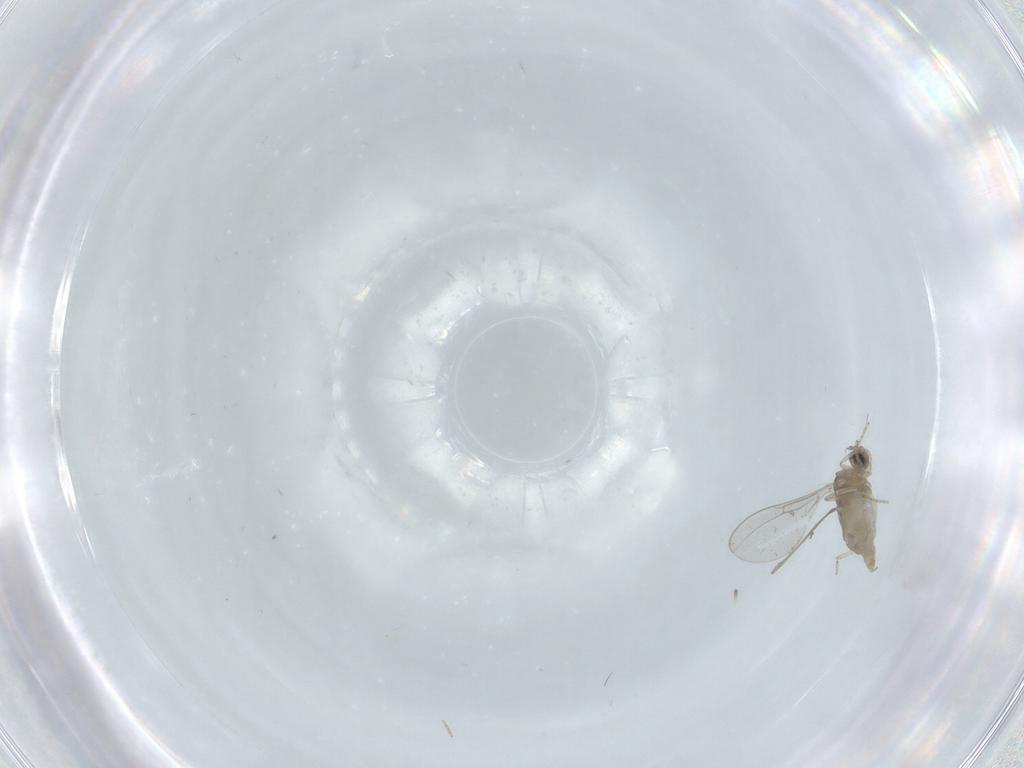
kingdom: Animalia
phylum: Arthropoda
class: Insecta
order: Diptera
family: Cecidomyiidae
